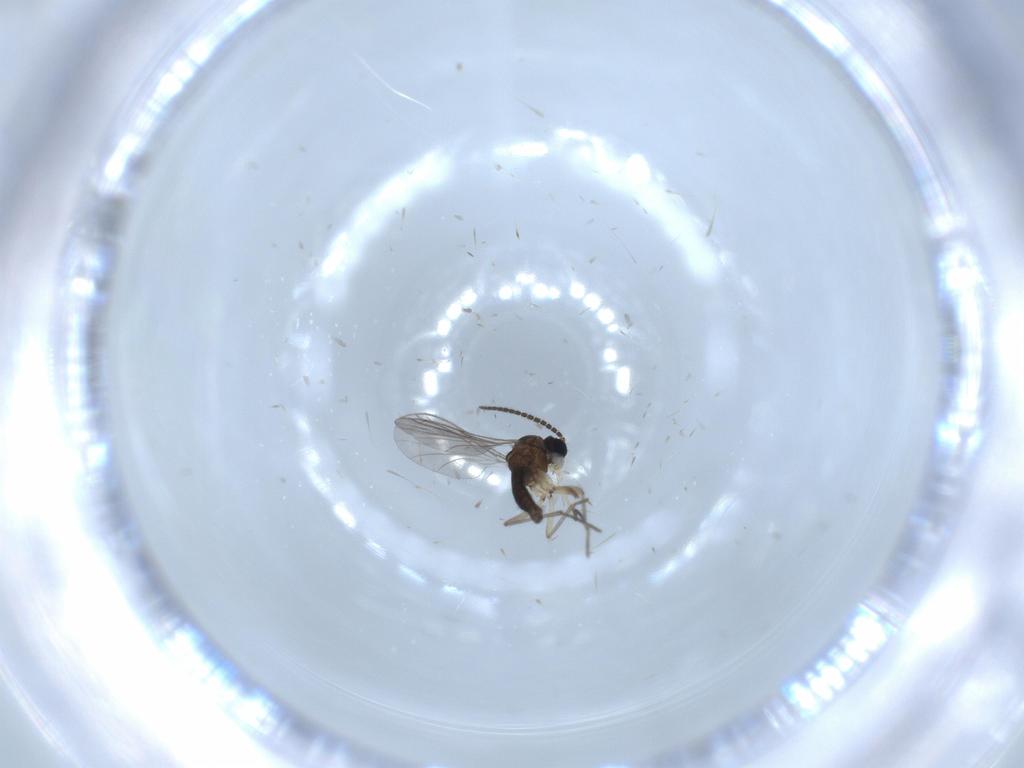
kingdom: Animalia
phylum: Arthropoda
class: Insecta
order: Diptera
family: Sciaridae
